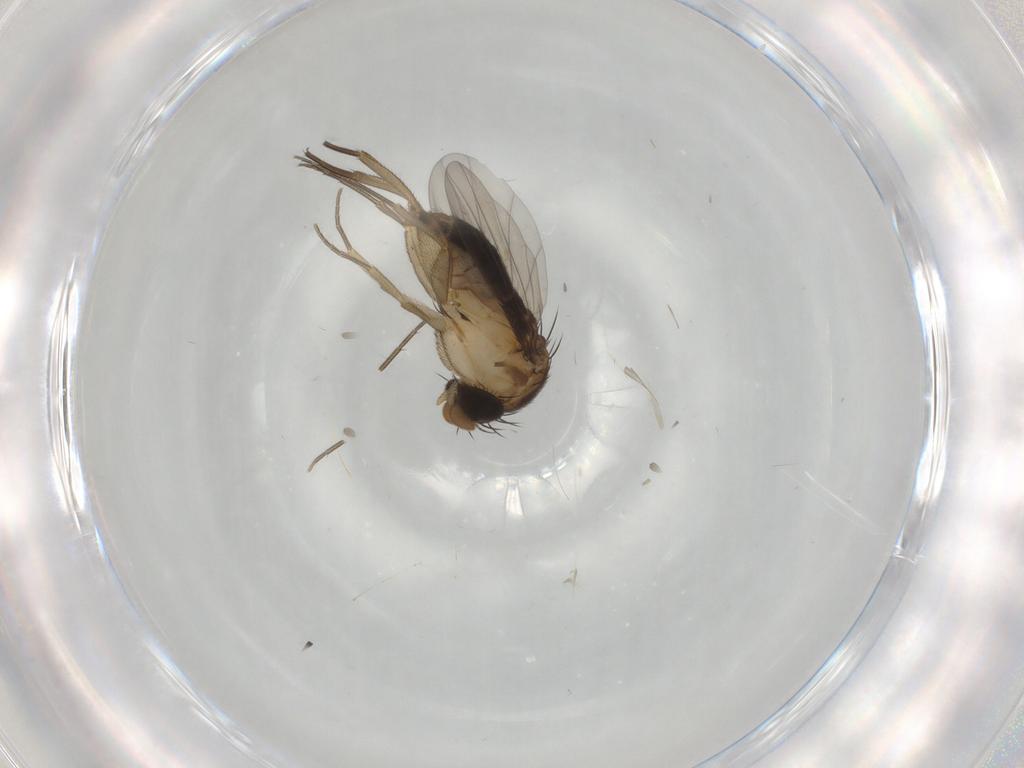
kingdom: Animalia
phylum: Arthropoda
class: Insecta
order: Diptera
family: Phoridae
